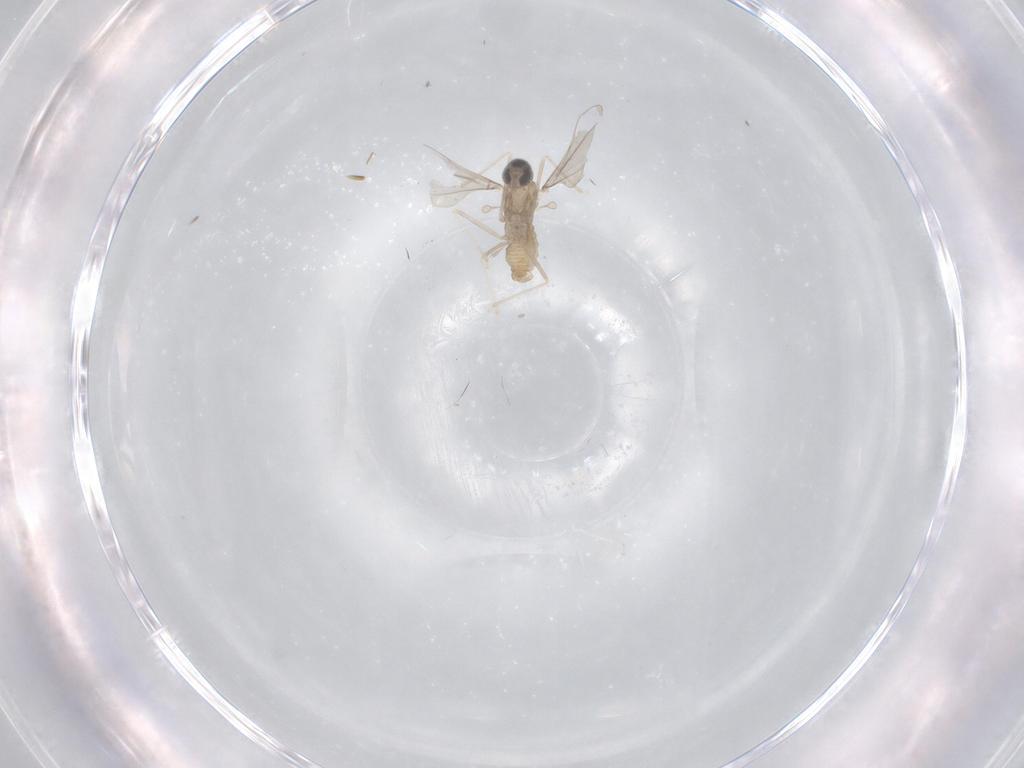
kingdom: Animalia
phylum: Arthropoda
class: Insecta
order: Diptera
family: Cecidomyiidae
